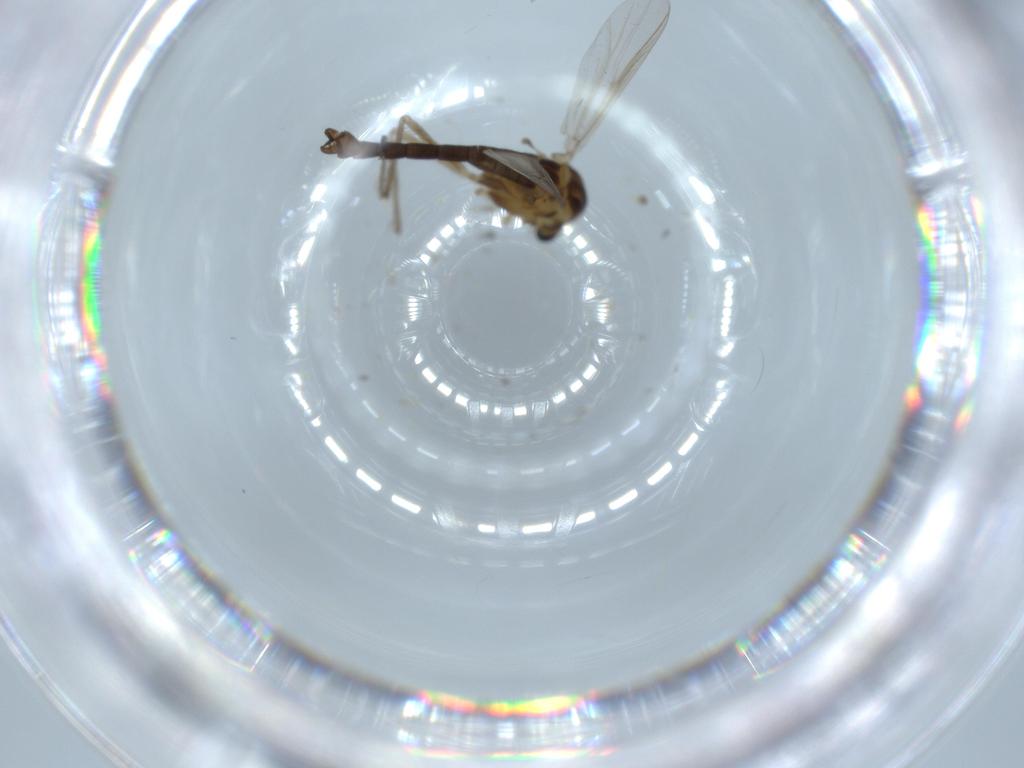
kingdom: Animalia
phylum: Arthropoda
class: Insecta
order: Diptera
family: Chironomidae
